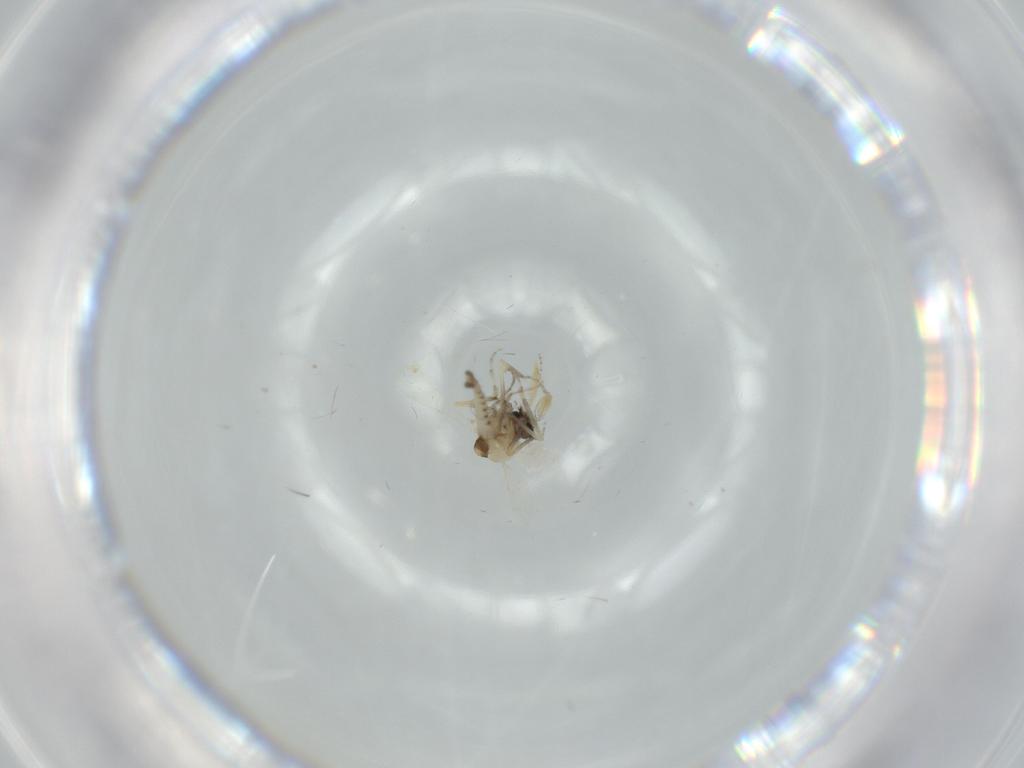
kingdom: Animalia
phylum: Arthropoda
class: Insecta
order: Diptera
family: Ceratopogonidae
